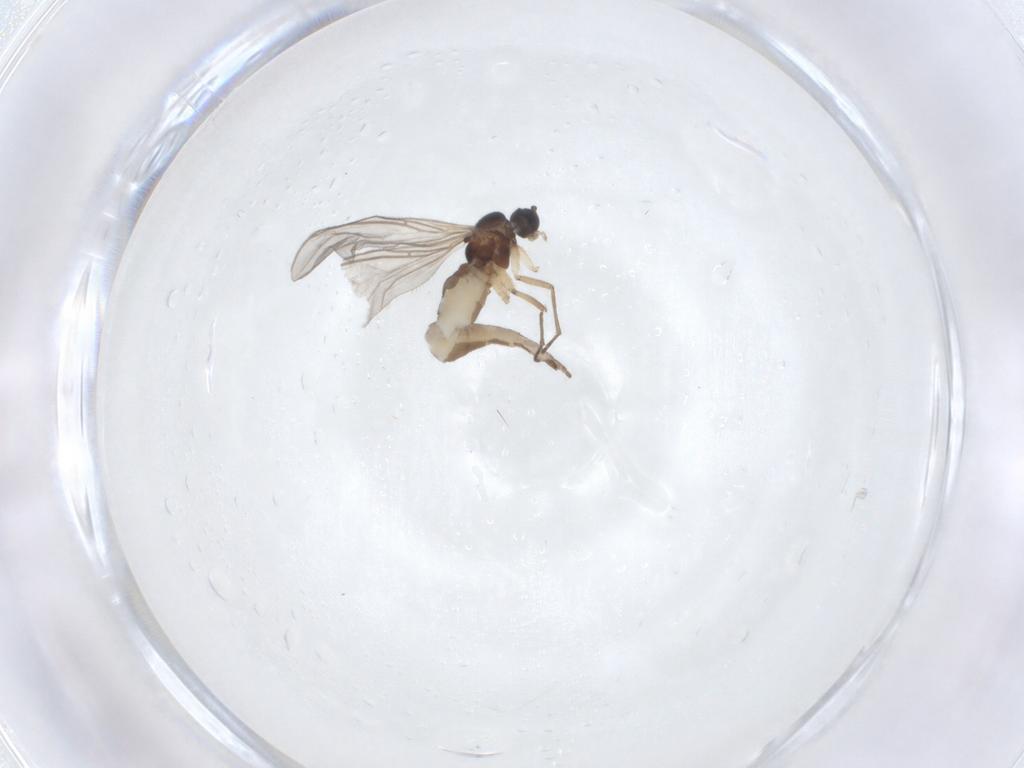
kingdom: Animalia
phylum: Arthropoda
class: Insecta
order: Diptera
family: Sciaridae
